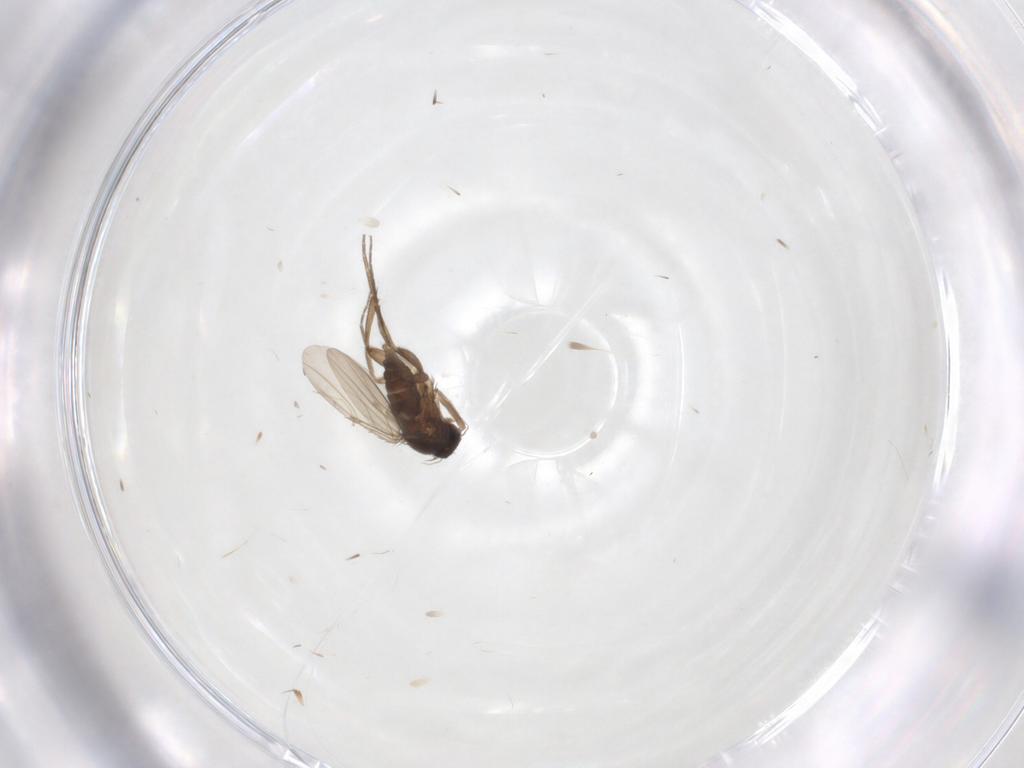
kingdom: Animalia
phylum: Arthropoda
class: Insecta
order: Diptera
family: Phoridae
